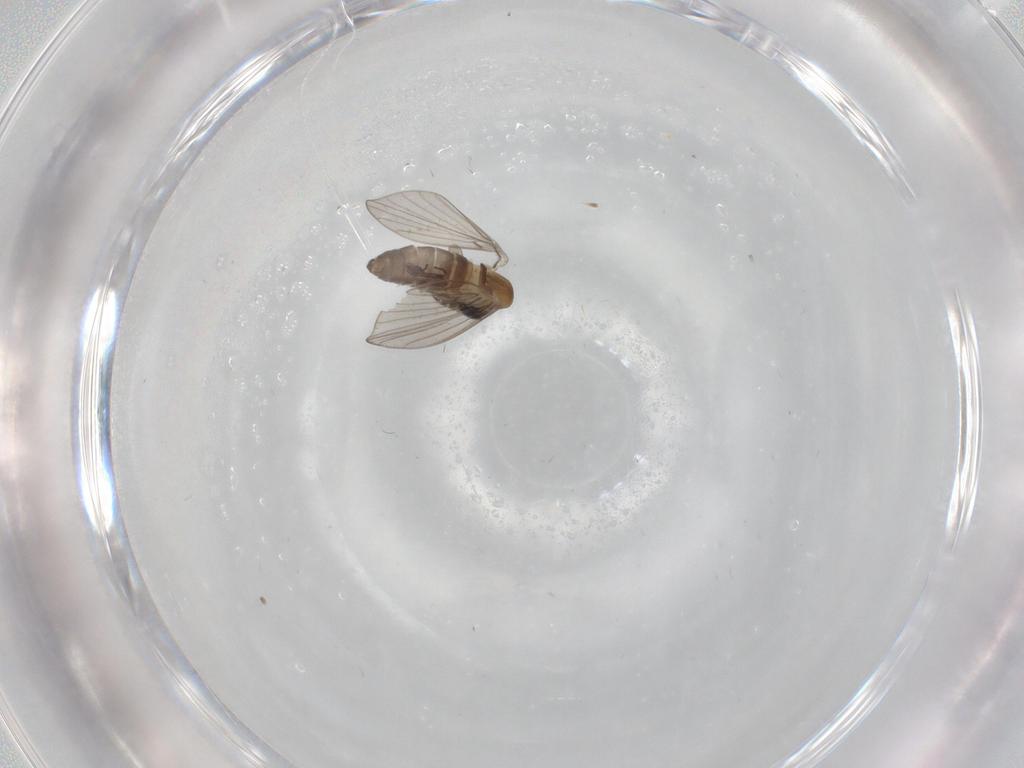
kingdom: Animalia
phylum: Arthropoda
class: Insecta
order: Diptera
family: Chironomidae
